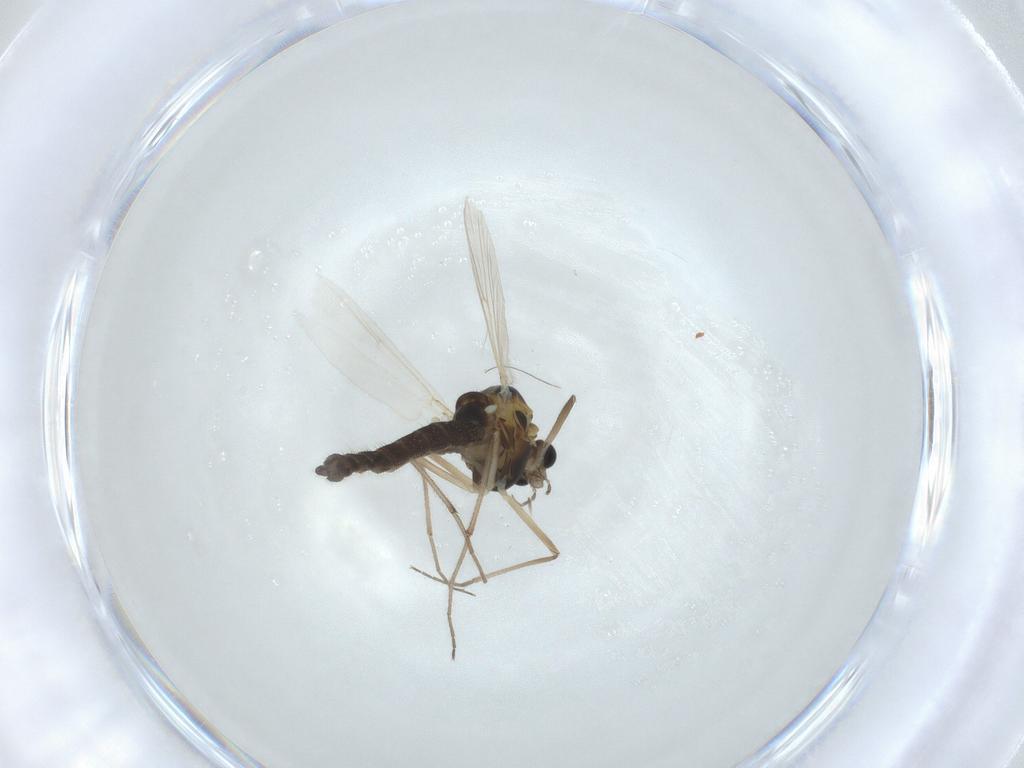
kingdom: Animalia
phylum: Arthropoda
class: Insecta
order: Diptera
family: Chironomidae
